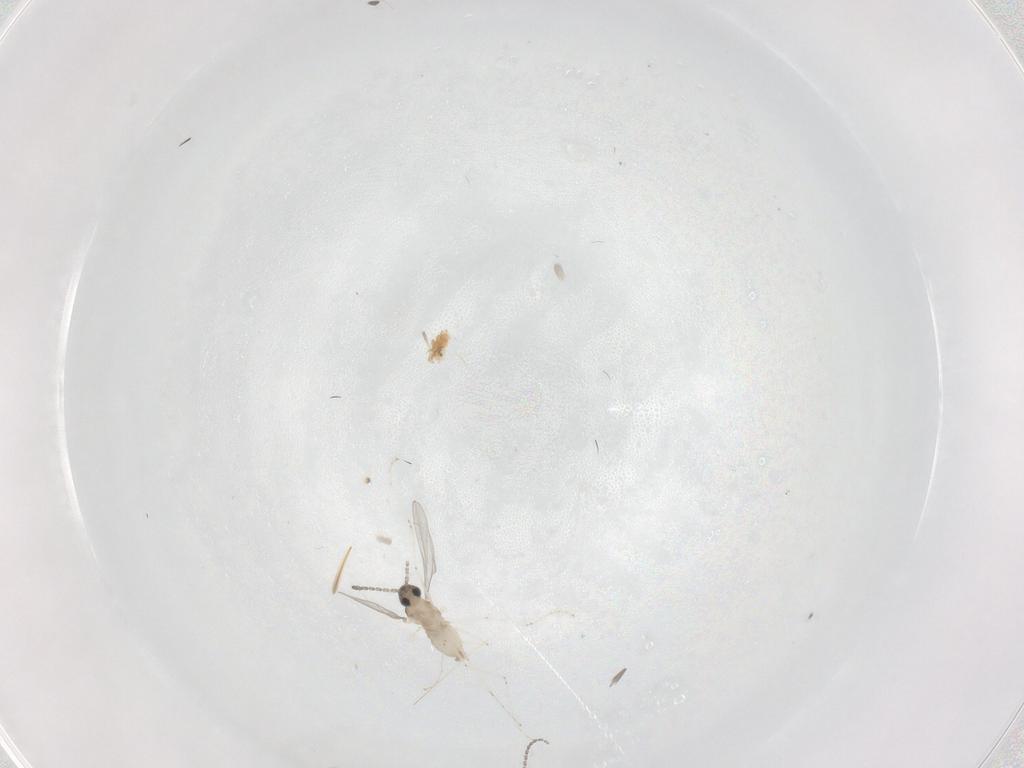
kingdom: Animalia
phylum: Arthropoda
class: Insecta
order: Diptera
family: Cecidomyiidae
